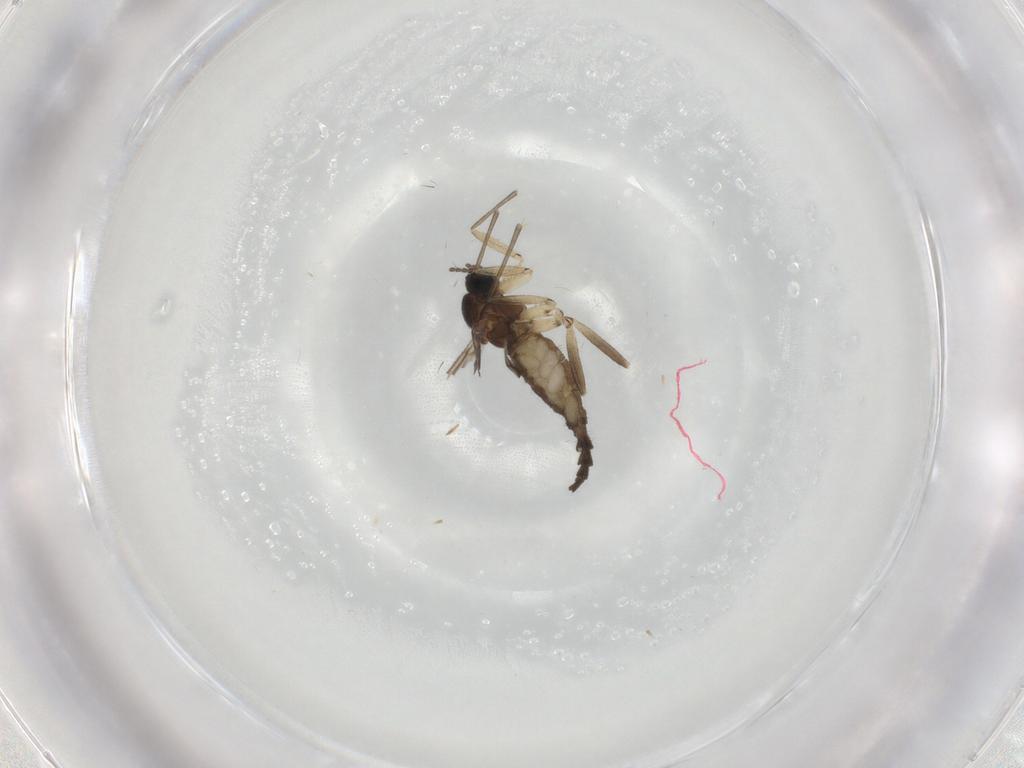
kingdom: Animalia
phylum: Arthropoda
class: Insecta
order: Diptera
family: Sciaridae
